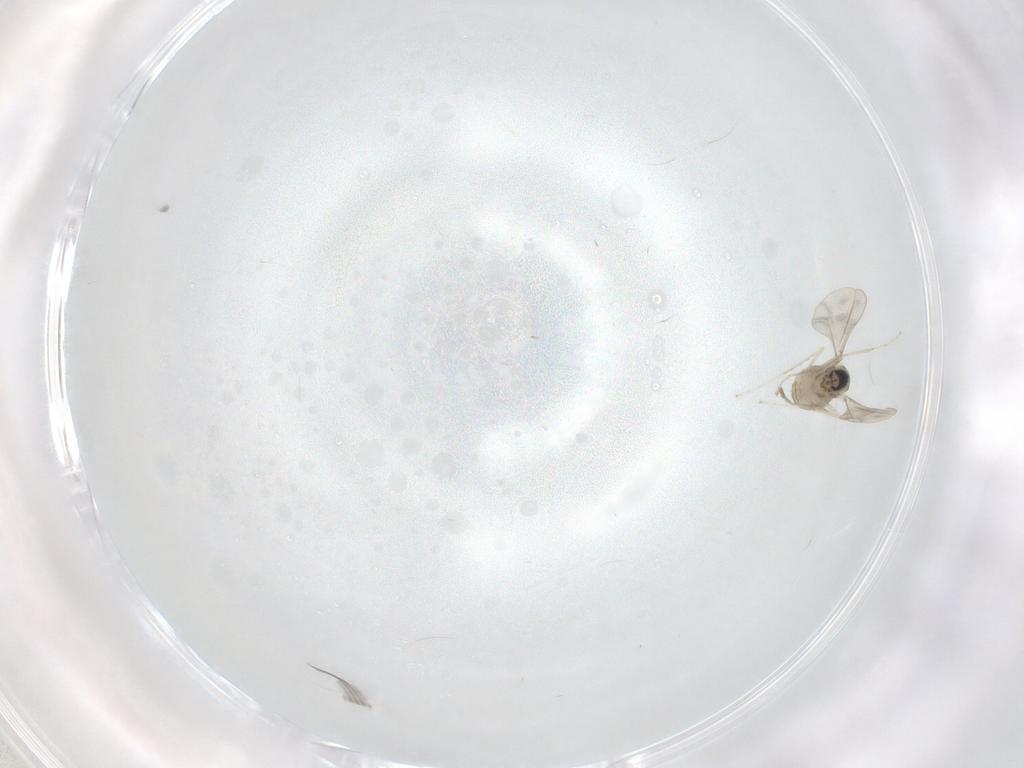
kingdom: Animalia
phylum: Arthropoda
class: Insecta
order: Diptera
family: Chironomidae
